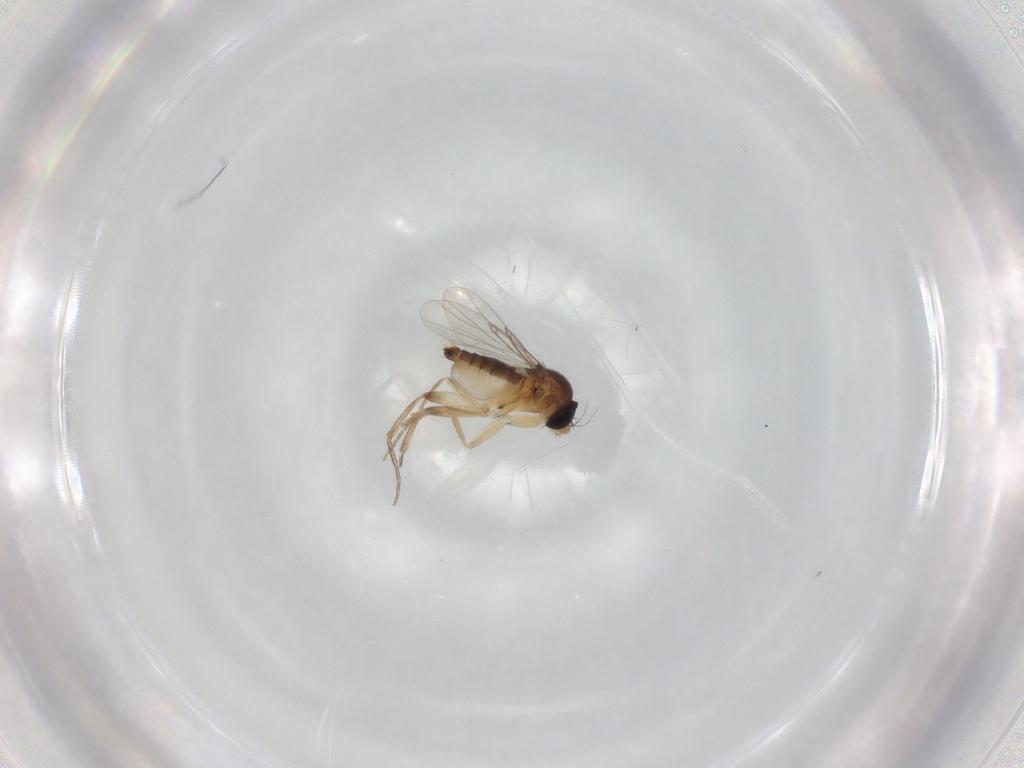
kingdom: Animalia
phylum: Arthropoda
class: Insecta
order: Diptera
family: Phoridae
